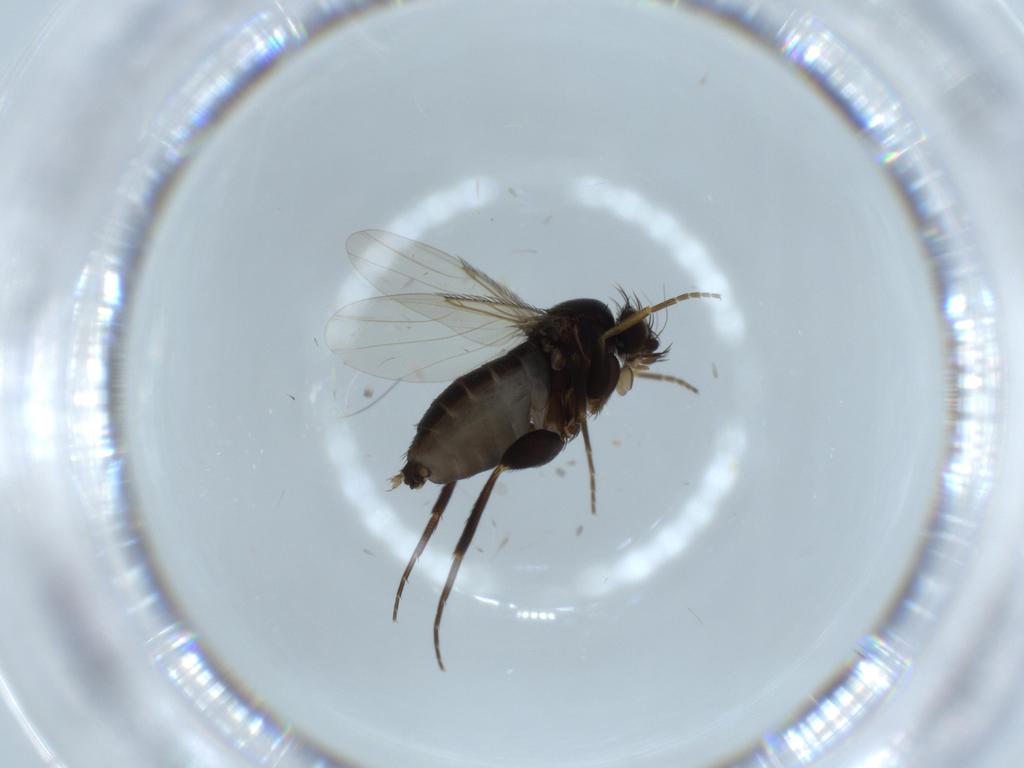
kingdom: Animalia
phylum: Arthropoda
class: Insecta
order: Diptera
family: Phoridae
